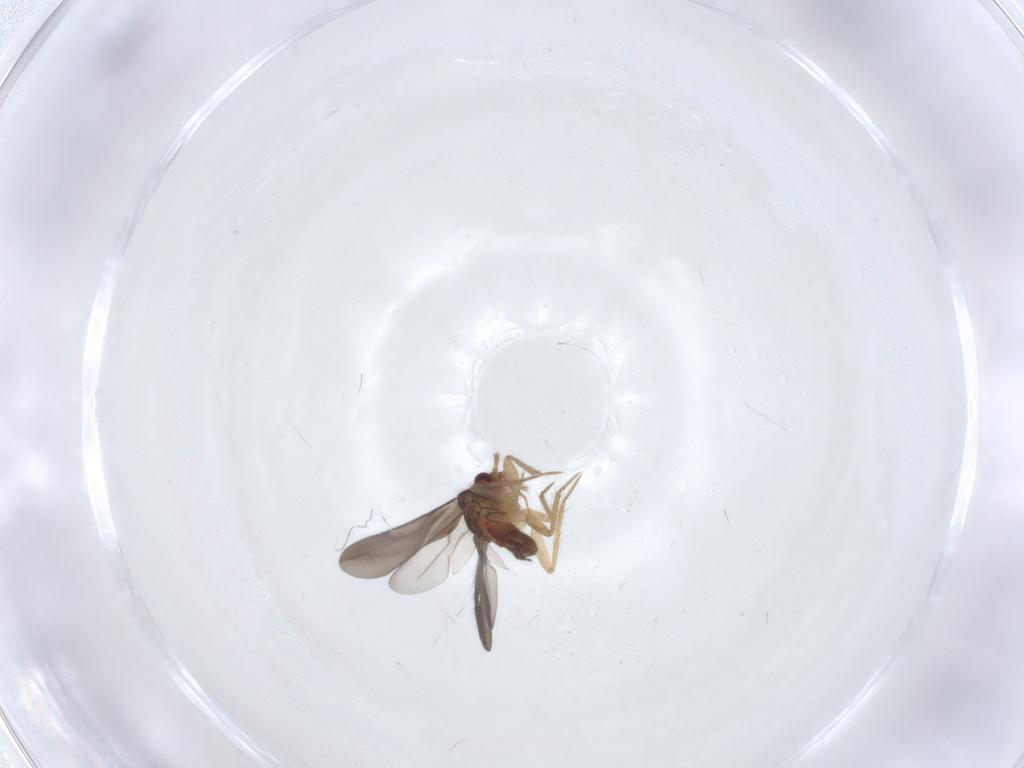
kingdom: Animalia
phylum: Arthropoda
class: Insecta
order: Hemiptera
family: Ceratocombidae
